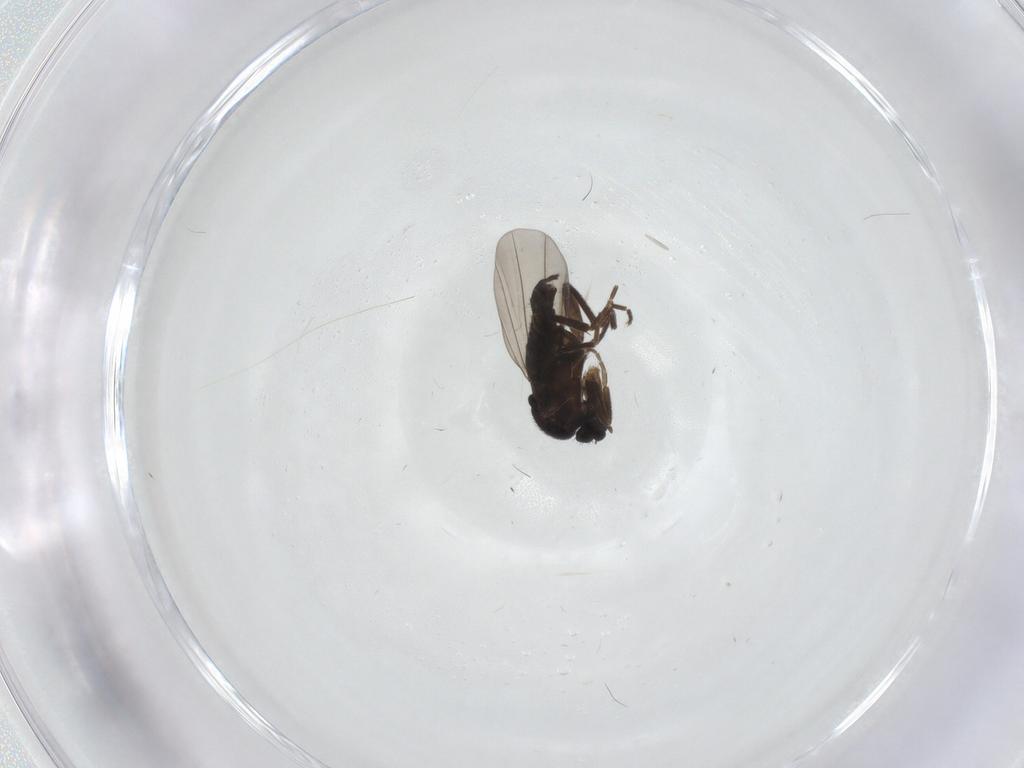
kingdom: Animalia
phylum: Arthropoda
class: Insecta
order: Diptera
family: Phoridae
